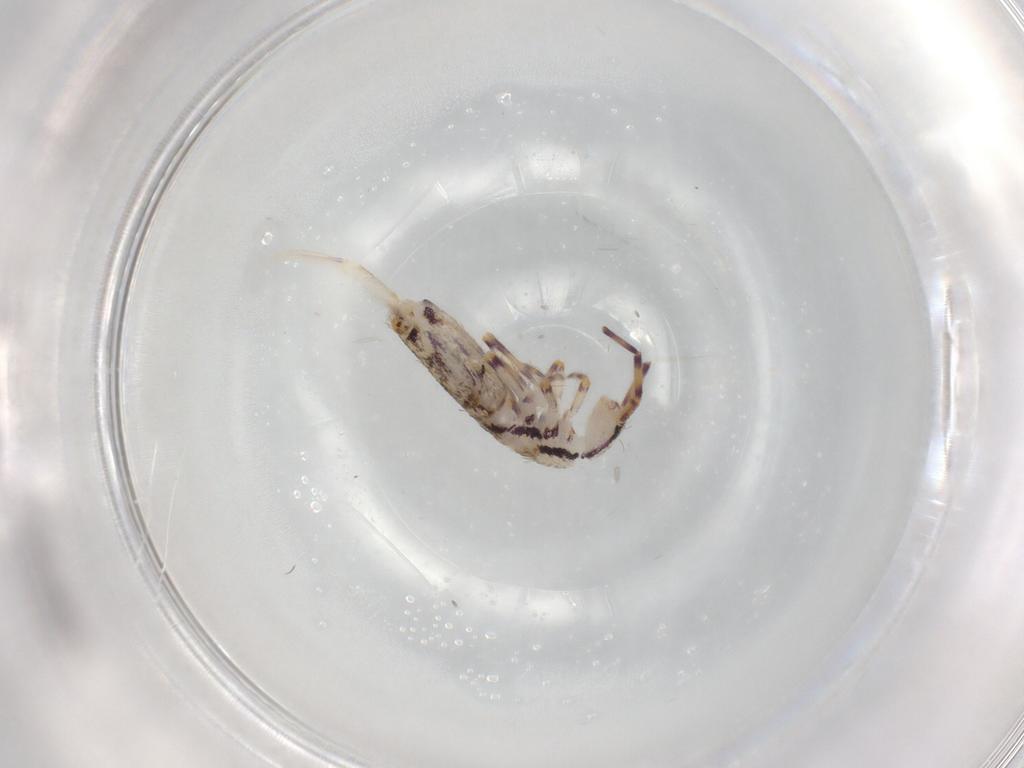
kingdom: Animalia
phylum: Arthropoda
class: Collembola
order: Entomobryomorpha
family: Entomobryidae
